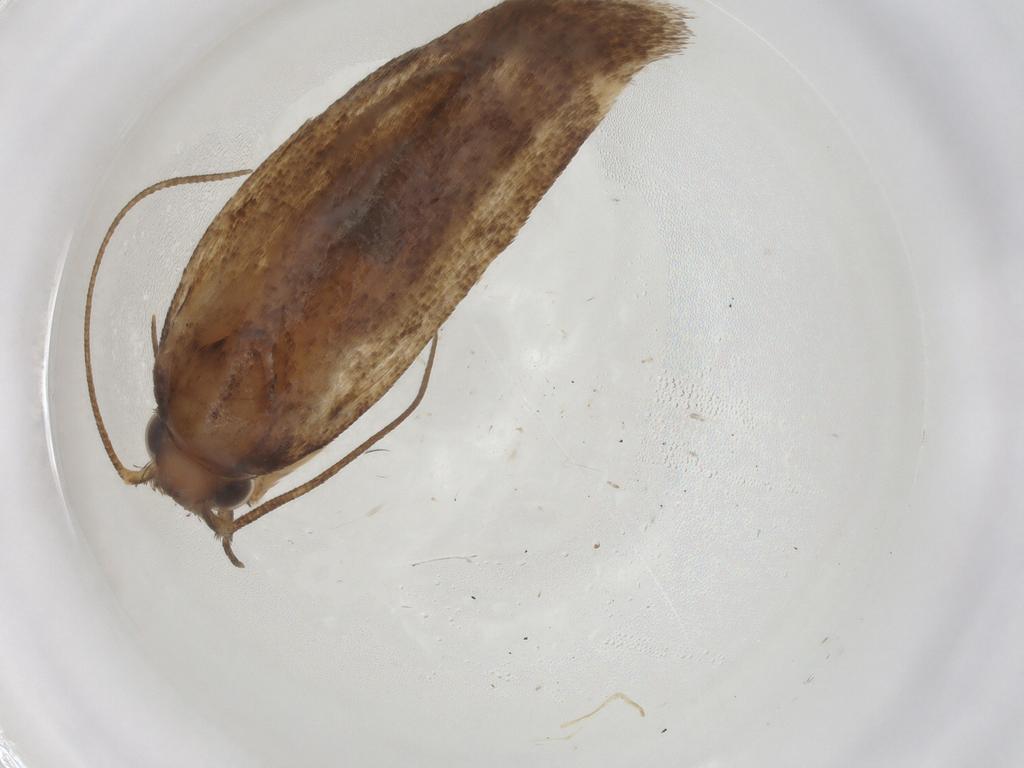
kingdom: Animalia
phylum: Arthropoda
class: Insecta
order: Lepidoptera
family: Gelechiidae
